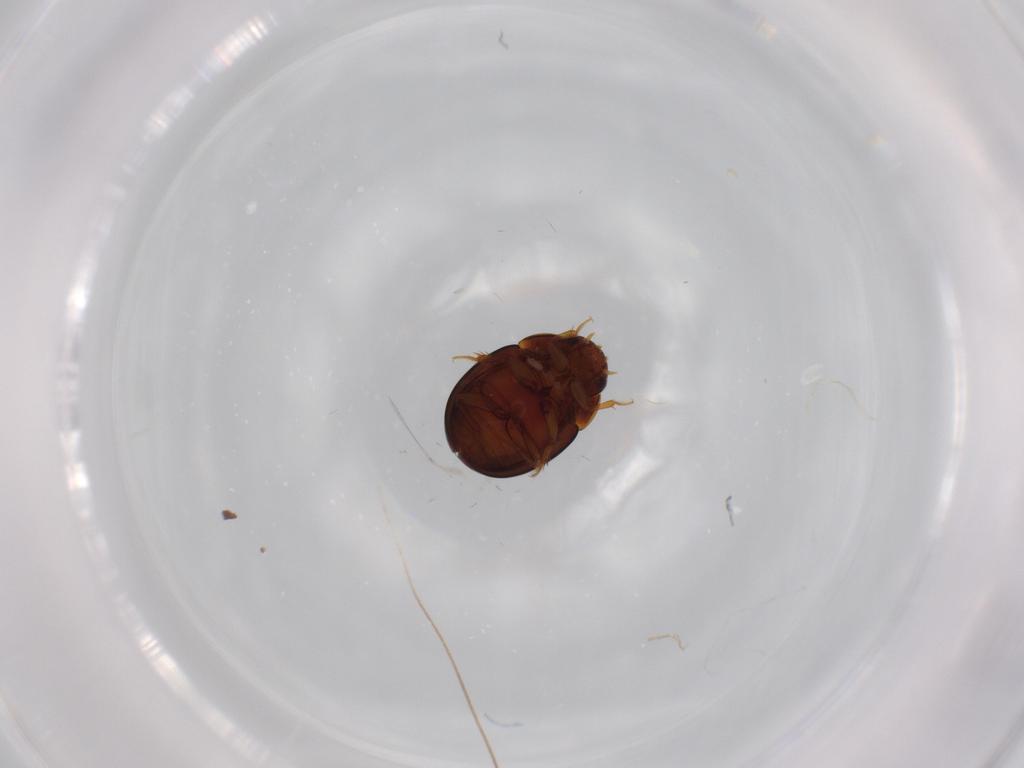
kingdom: Animalia
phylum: Arthropoda
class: Insecta
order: Coleoptera
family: Leiodidae
